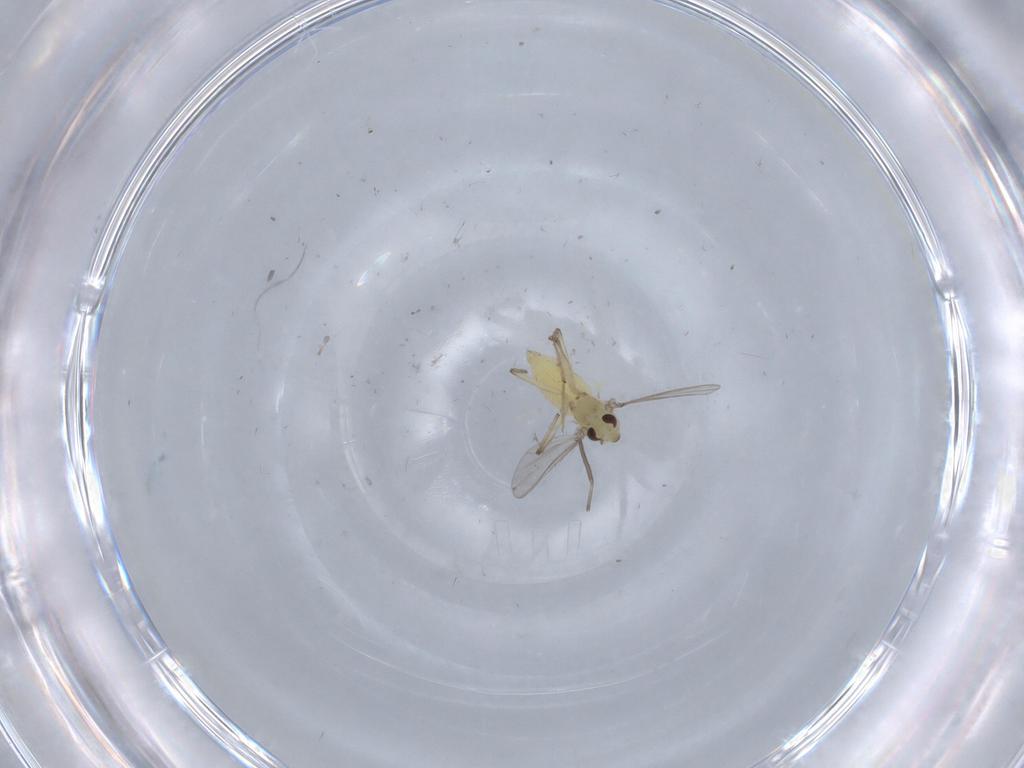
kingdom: Animalia
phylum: Arthropoda
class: Insecta
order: Diptera
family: Chironomidae
